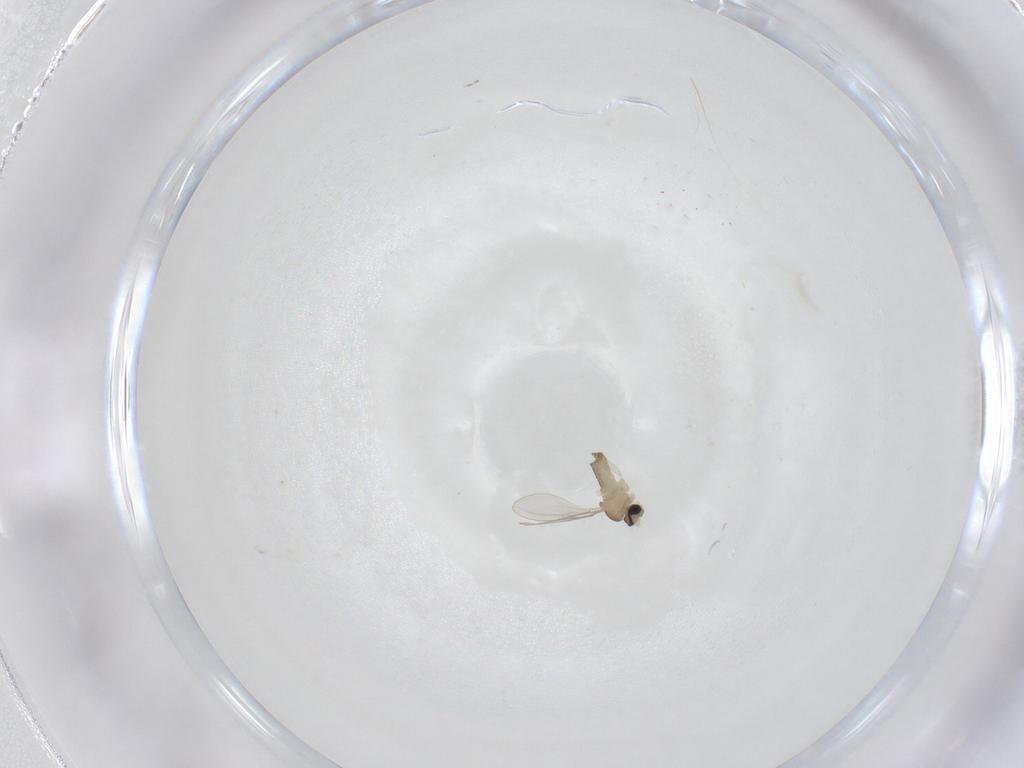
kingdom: Animalia
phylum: Arthropoda
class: Insecta
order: Diptera
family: Cecidomyiidae
